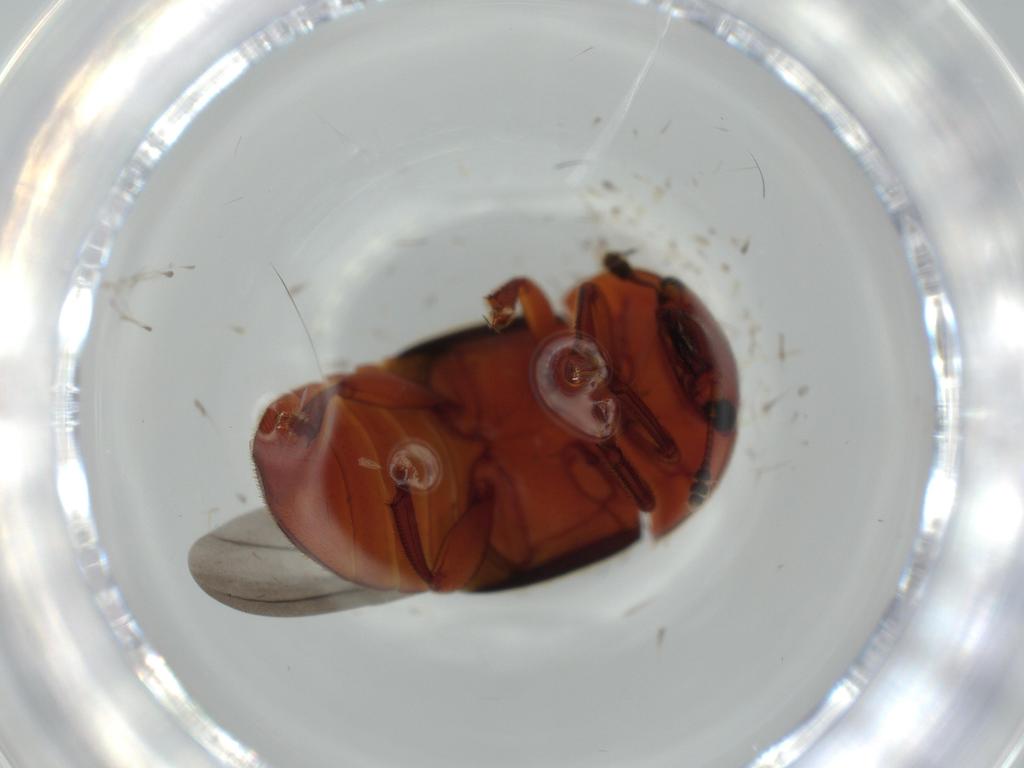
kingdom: Animalia
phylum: Arthropoda
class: Insecta
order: Coleoptera
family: Nitidulidae
